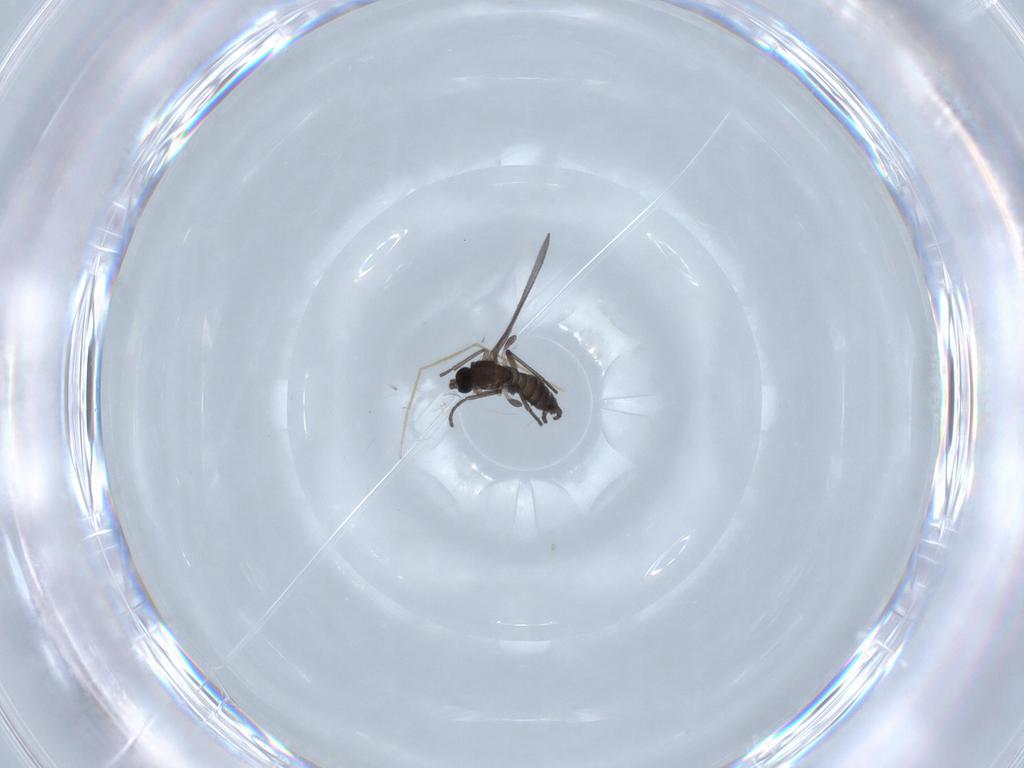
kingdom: Animalia
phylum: Arthropoda
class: Insecta
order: Diptera
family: Chironomidae
